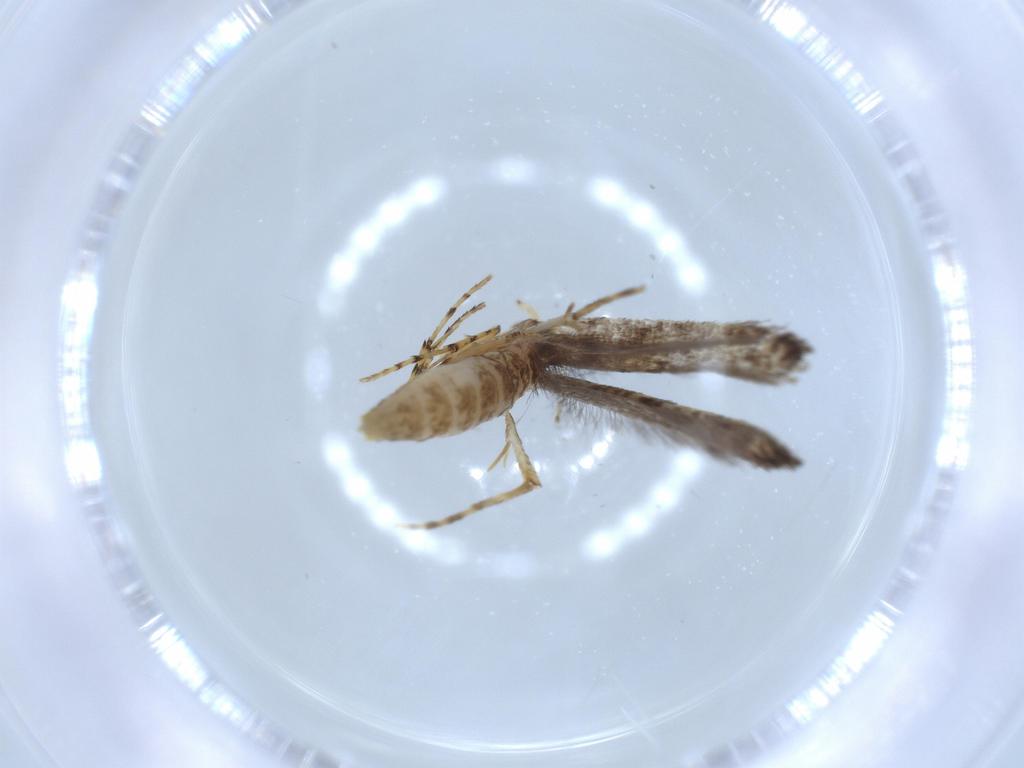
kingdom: Animalia
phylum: Arthropoda
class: Insecta
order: Lepidoptera
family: Argyresthiidae
